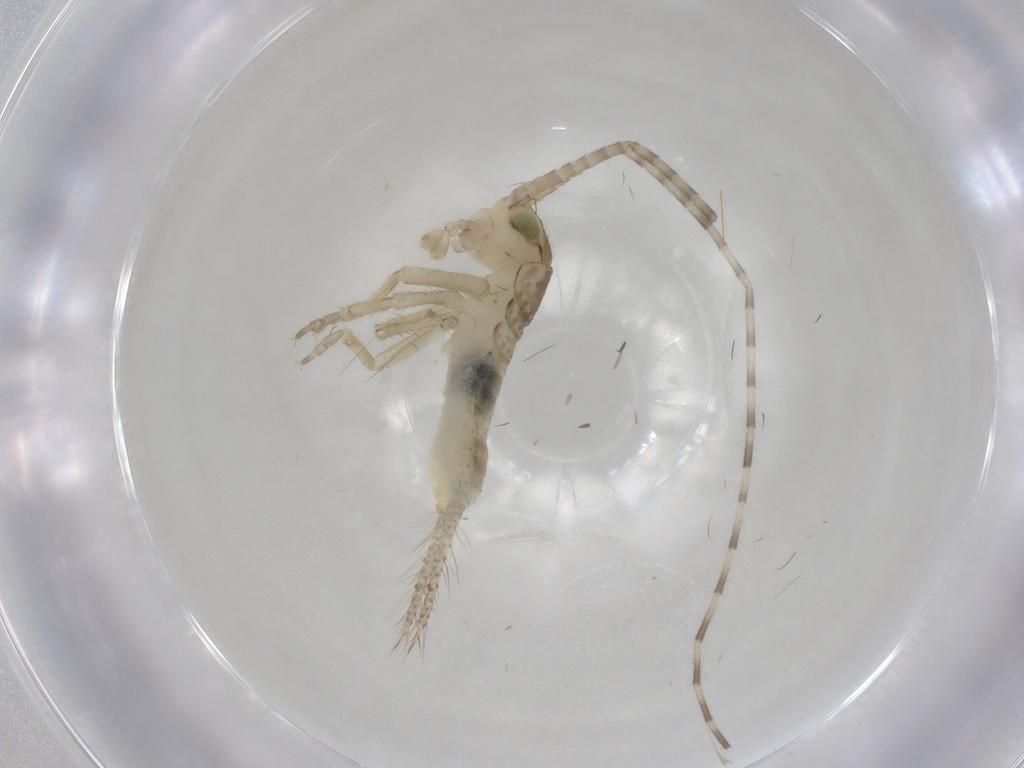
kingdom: Animalia
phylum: Arthropoda
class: Insecta
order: Orthoptera
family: Gryllidae
